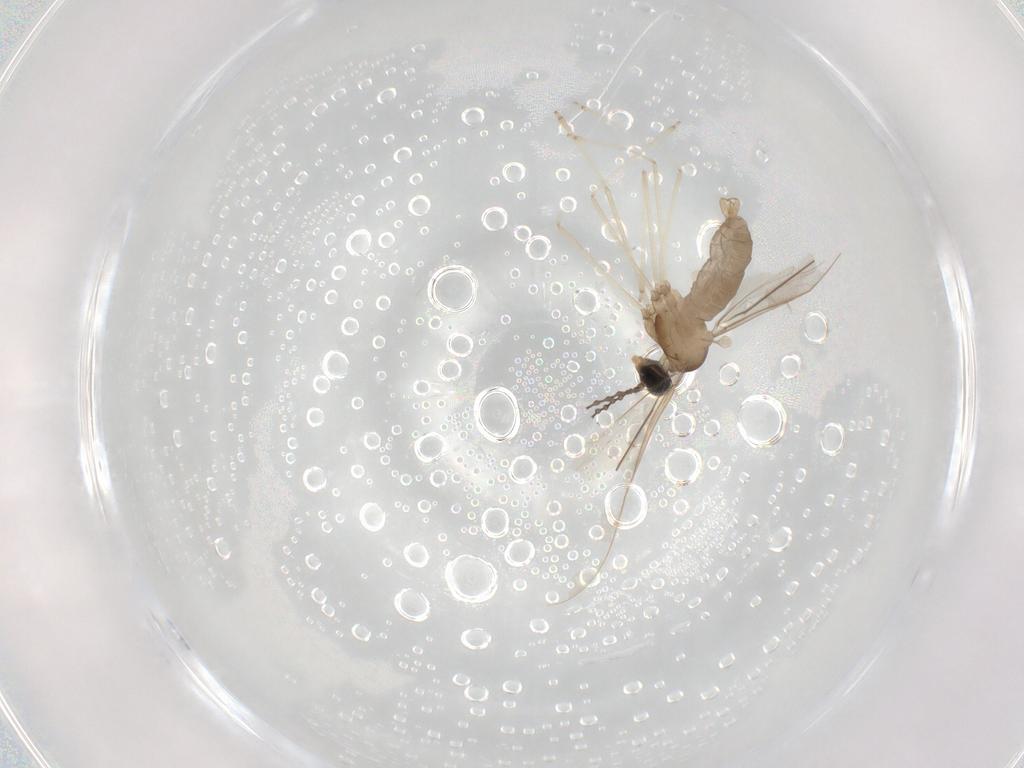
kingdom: Animalia
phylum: Arthropoda
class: Insecta
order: Diptera
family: Cecidomyiidae
